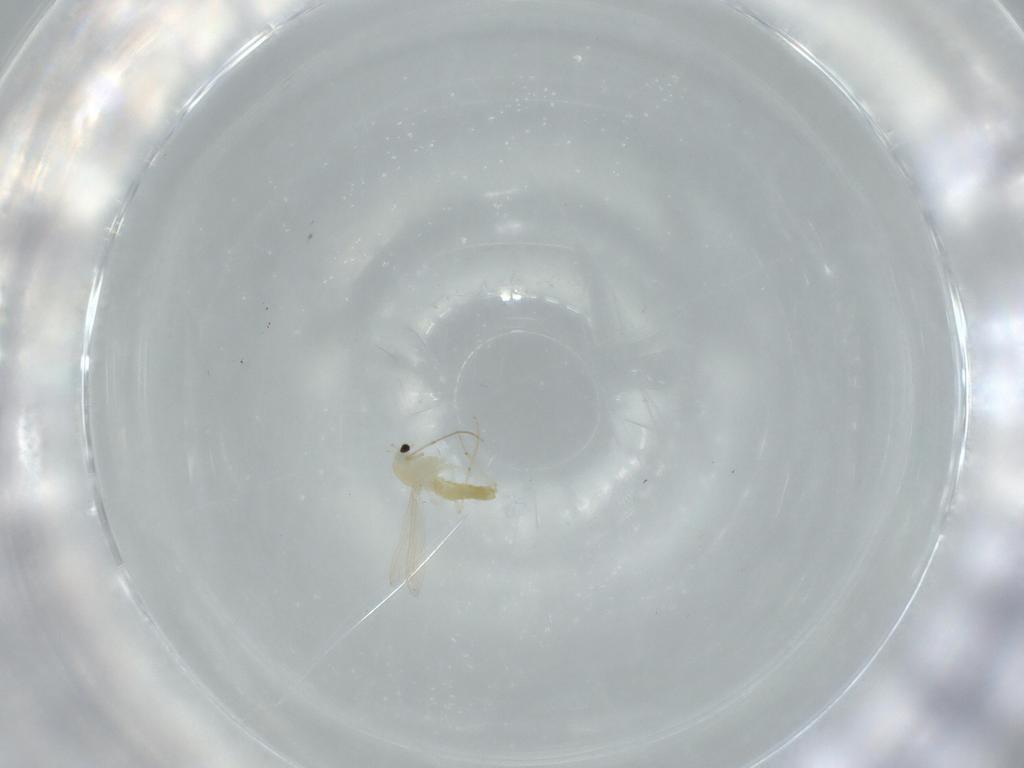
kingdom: Animalia
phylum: Arthropoda
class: Insecta
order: Diptera
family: Chironomidae
